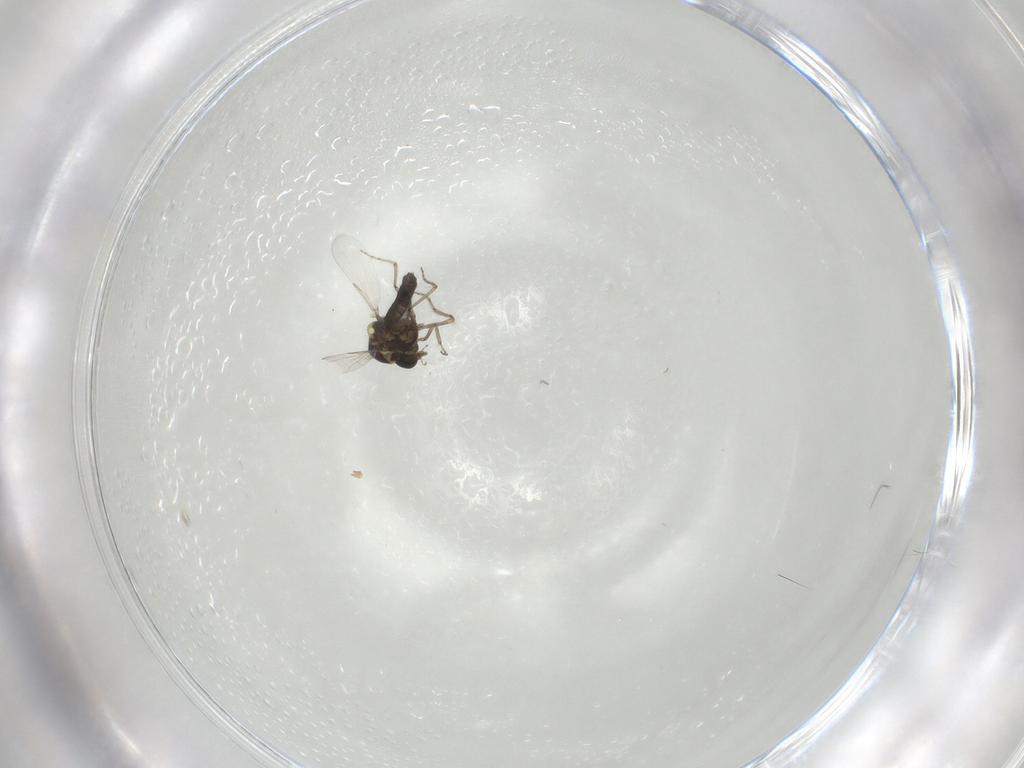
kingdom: Animalia
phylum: Arthropoda
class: Insecta
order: Diptera
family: Ceratopogonidae
